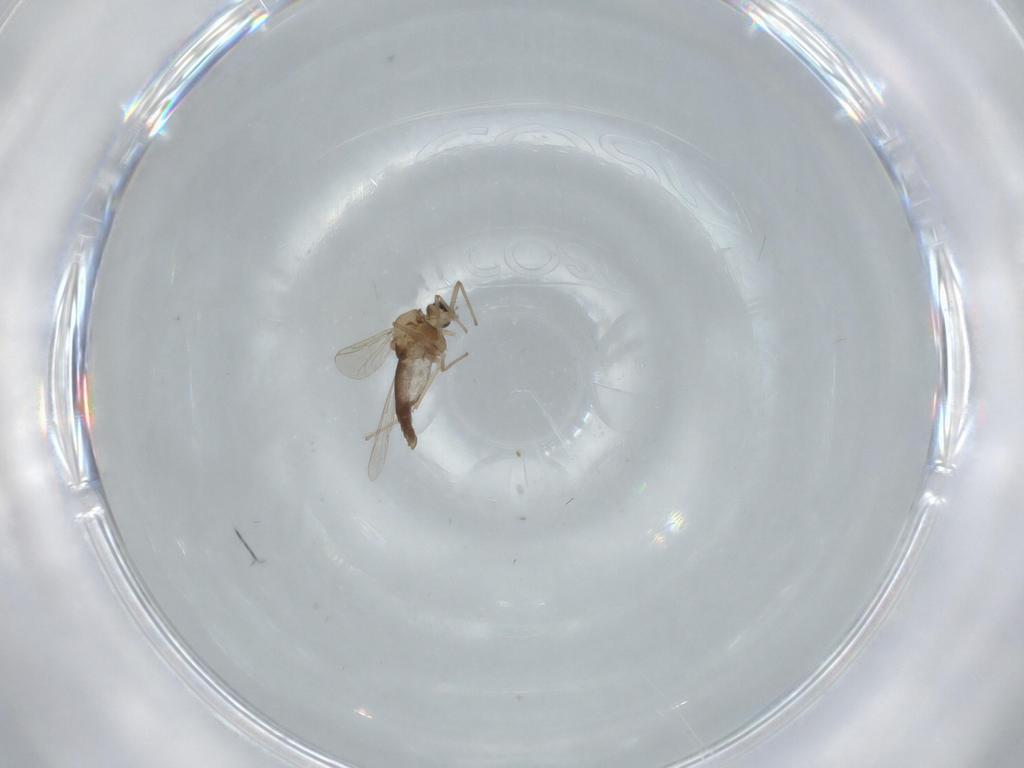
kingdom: Animalia
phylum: Arthropoda
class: Insecta
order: Diptera
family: Chironomidae
